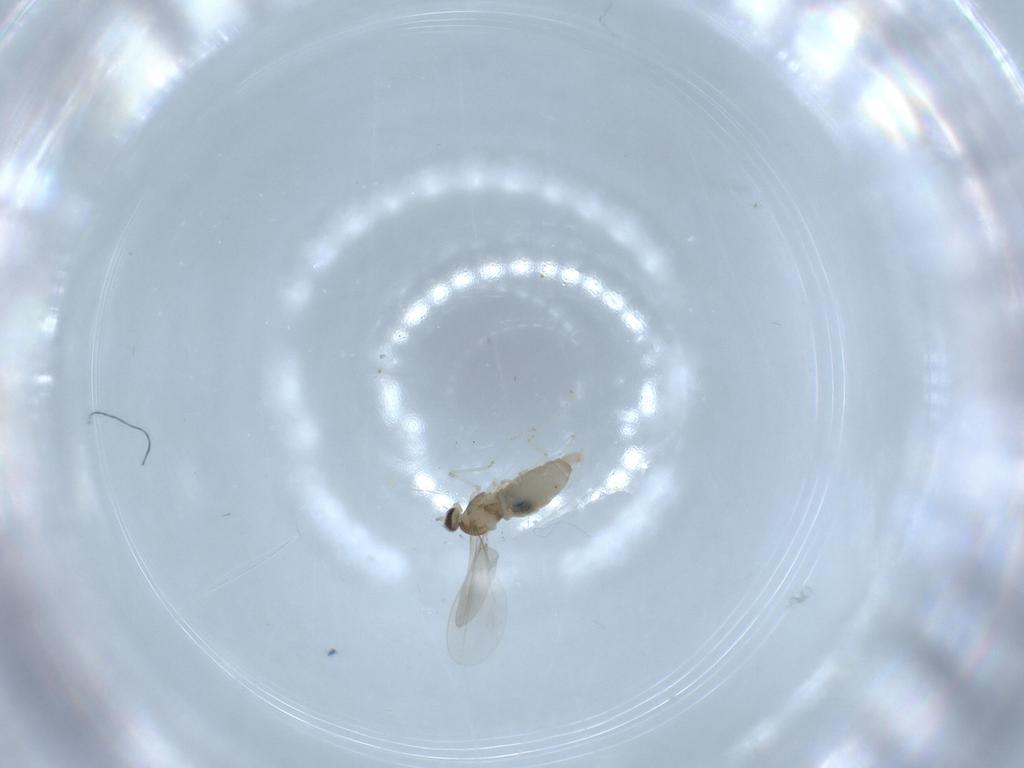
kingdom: Animalia
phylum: Arthropoda
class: Insecta
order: Diptera
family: Cecidomyiidae
